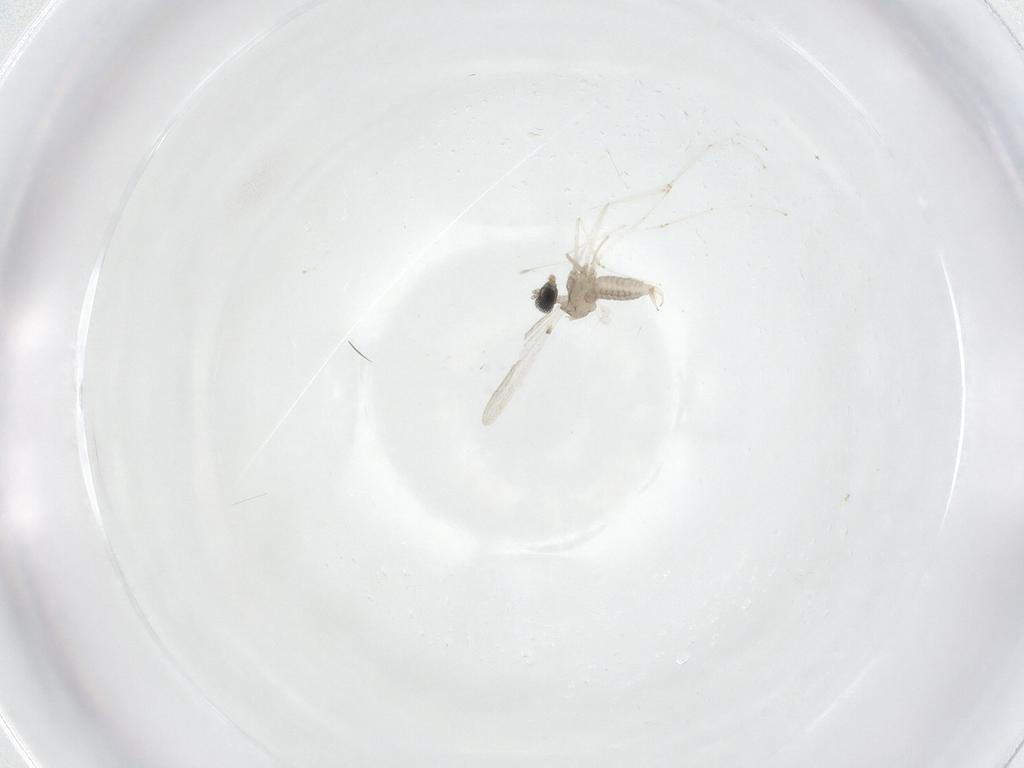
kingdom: Animalia
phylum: Arthropoda
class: Insecta
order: Diptera
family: Cecidomyiidae
